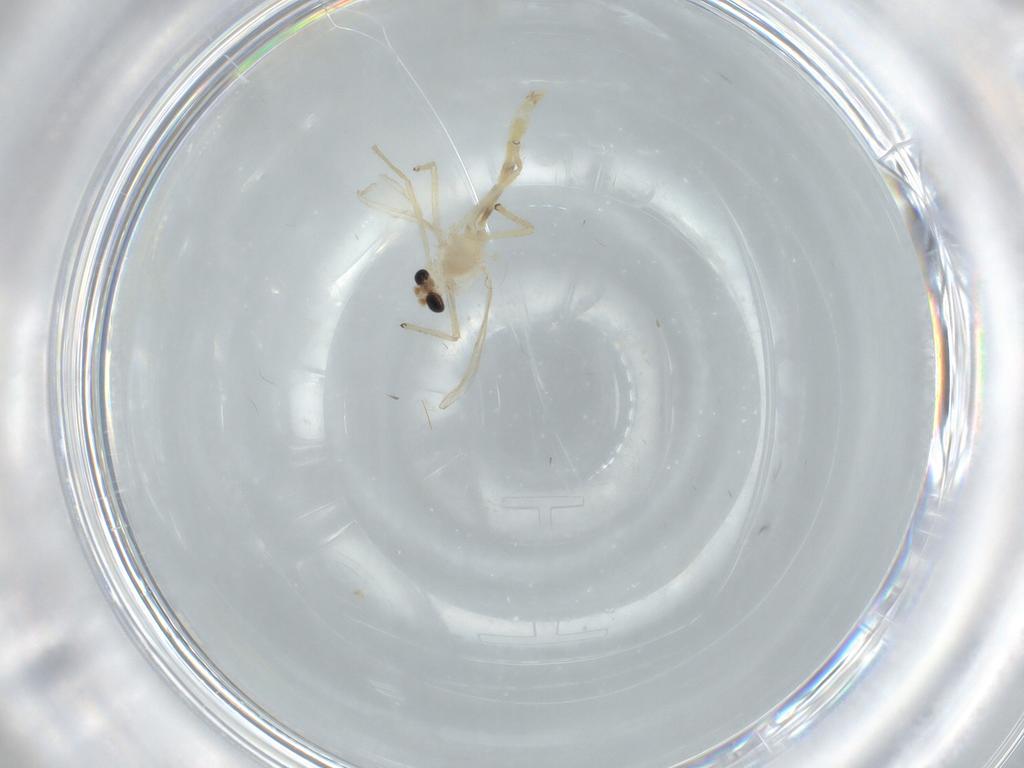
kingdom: Animalia
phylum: Arthropoda
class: Insecta
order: Diptera
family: Chironomidae
